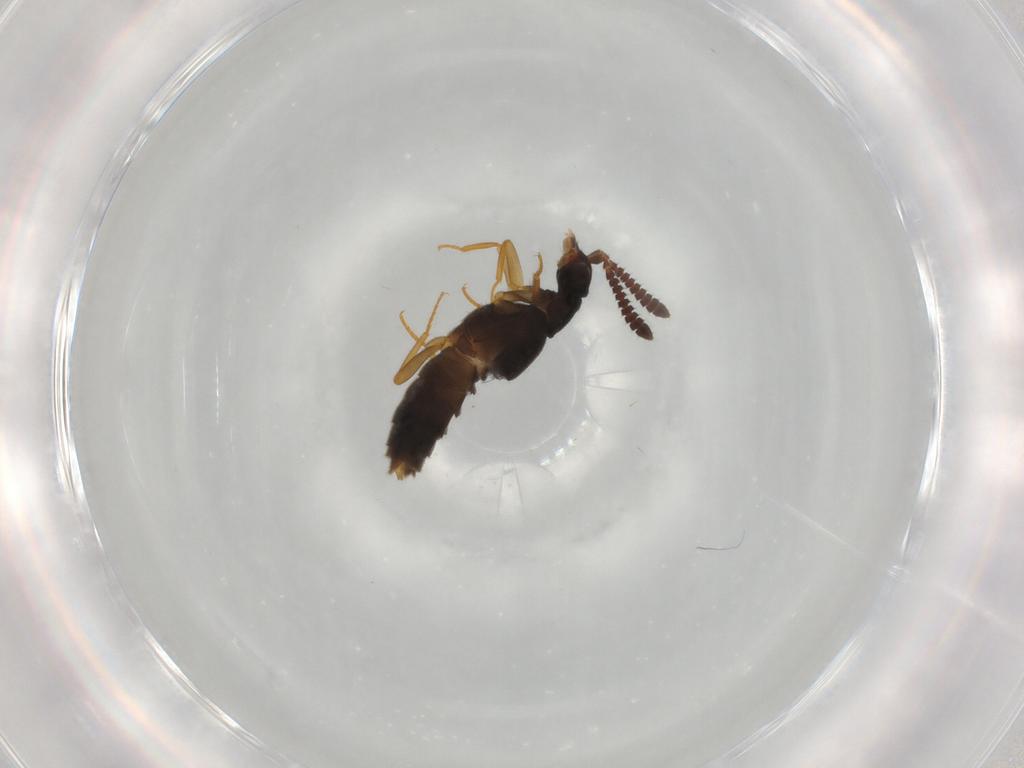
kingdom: Animalia
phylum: Arthropoda
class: Insecta
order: Coleoptera
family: Staphylinidae
